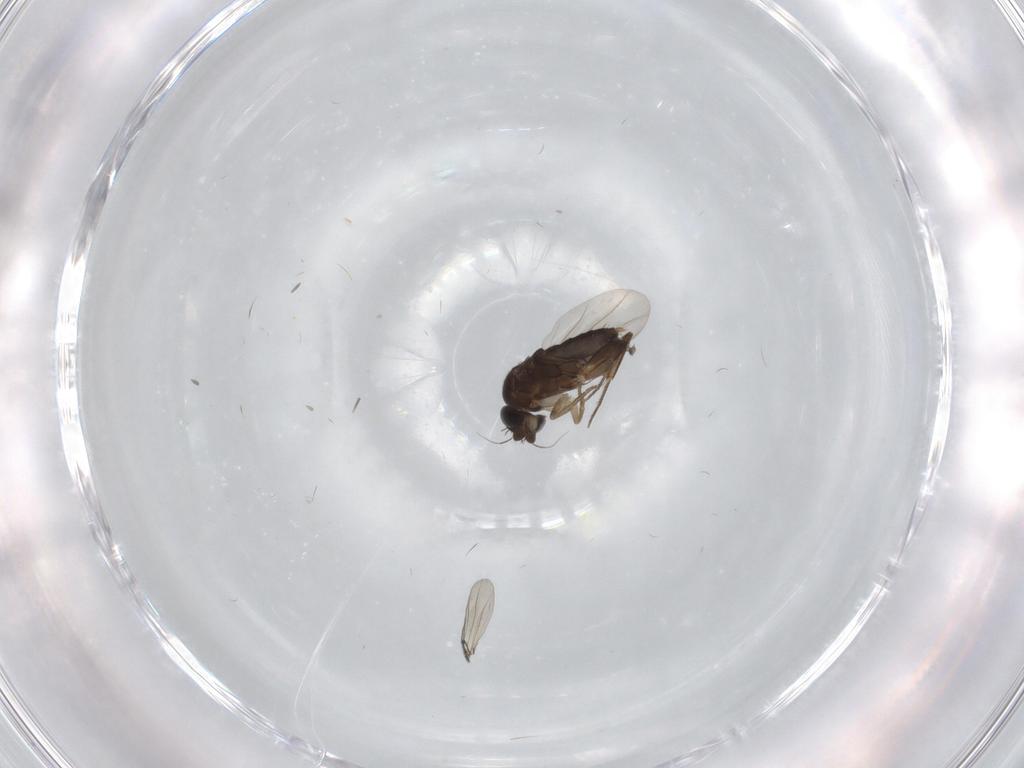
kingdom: Animalia
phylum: Arthropoda
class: Insecta
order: Diptera
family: Phoridae
